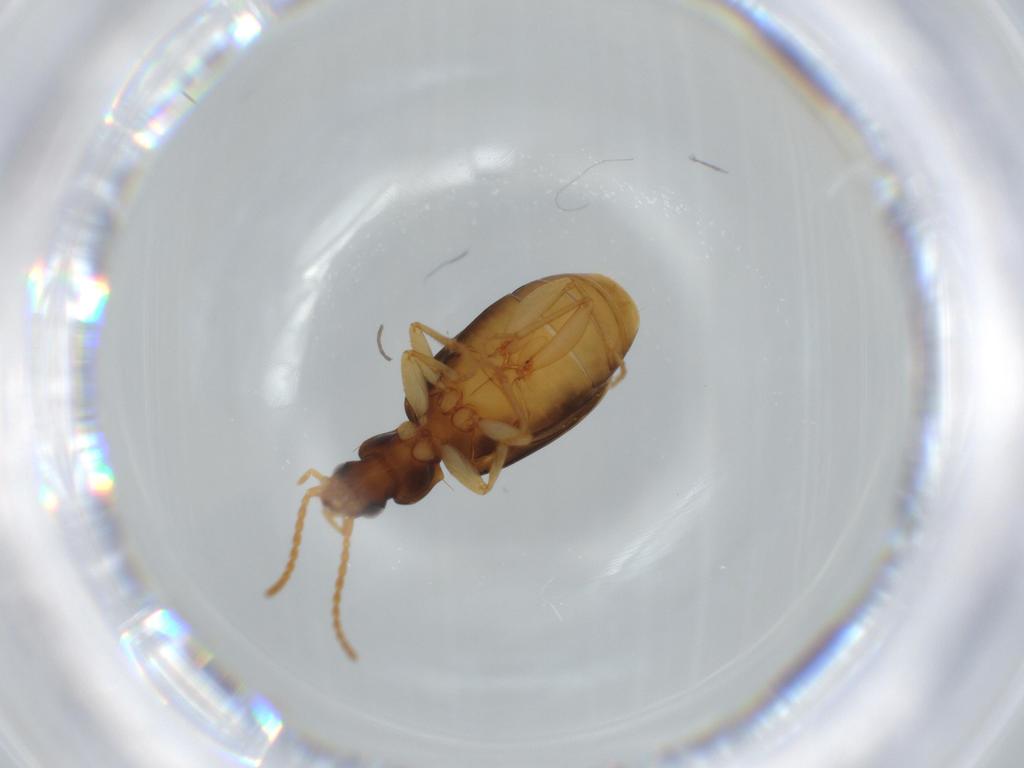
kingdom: Animalia
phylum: Arthropoda
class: Insecta
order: Coleoptera
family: Carabidae
